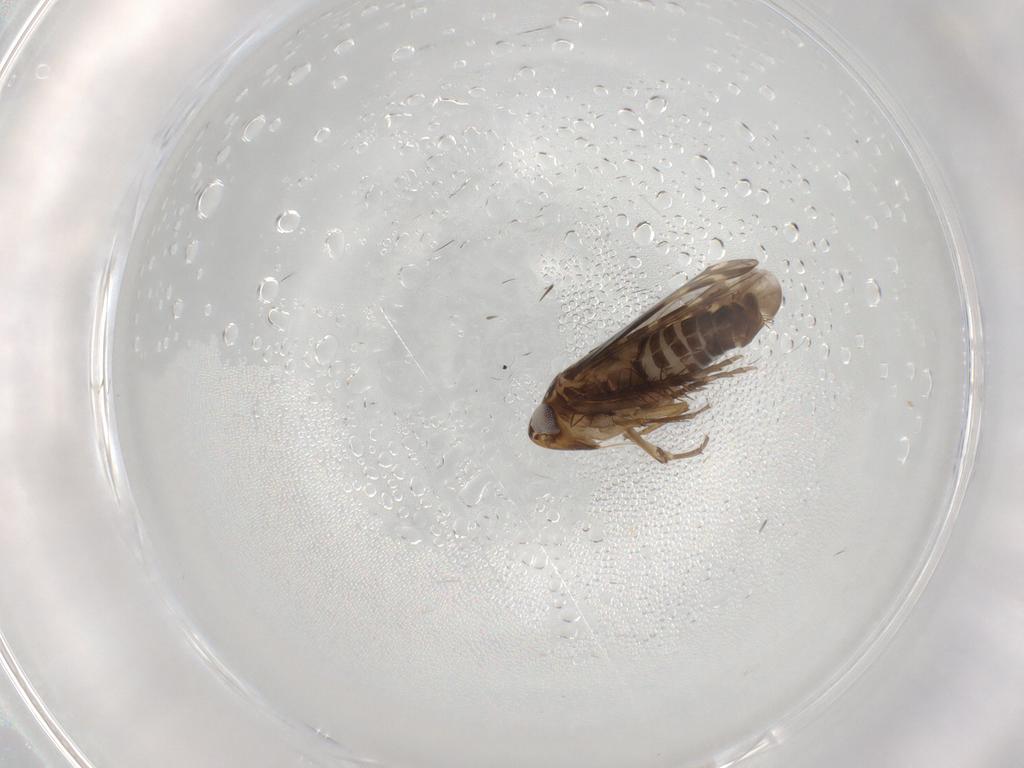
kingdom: Animalia
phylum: Arthropoda
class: Insecta
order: Hemiptera
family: Cicadellidae
